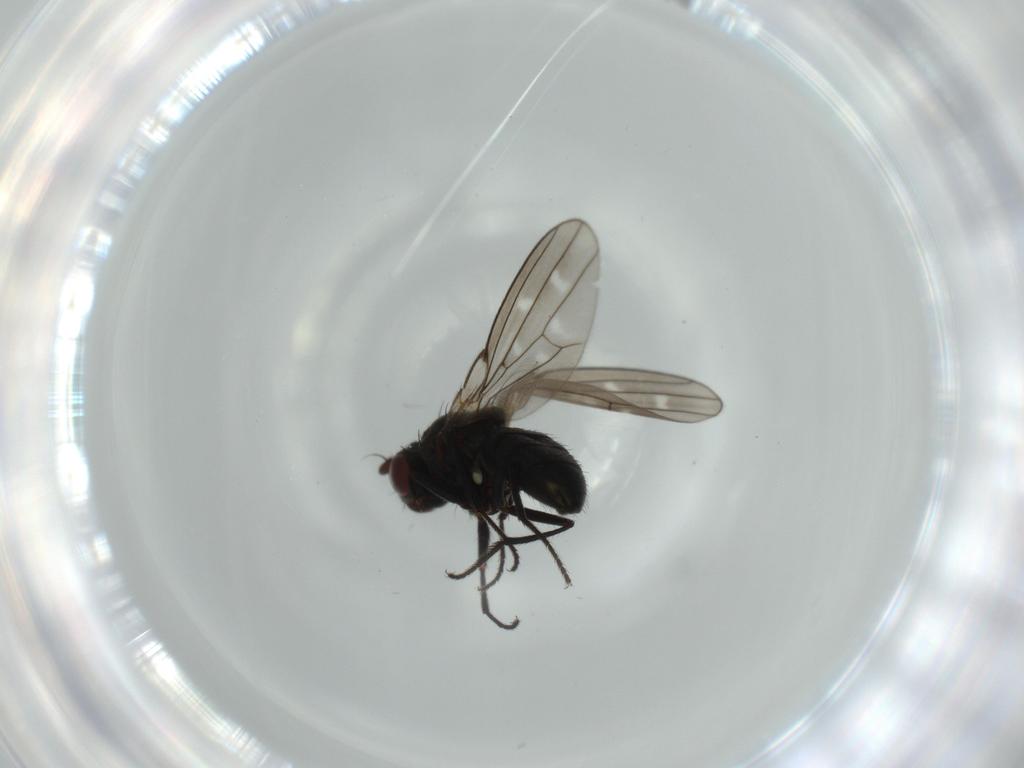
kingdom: Animalia
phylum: Arthropoda
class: Insecta
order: Diptera
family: Ephydridae
